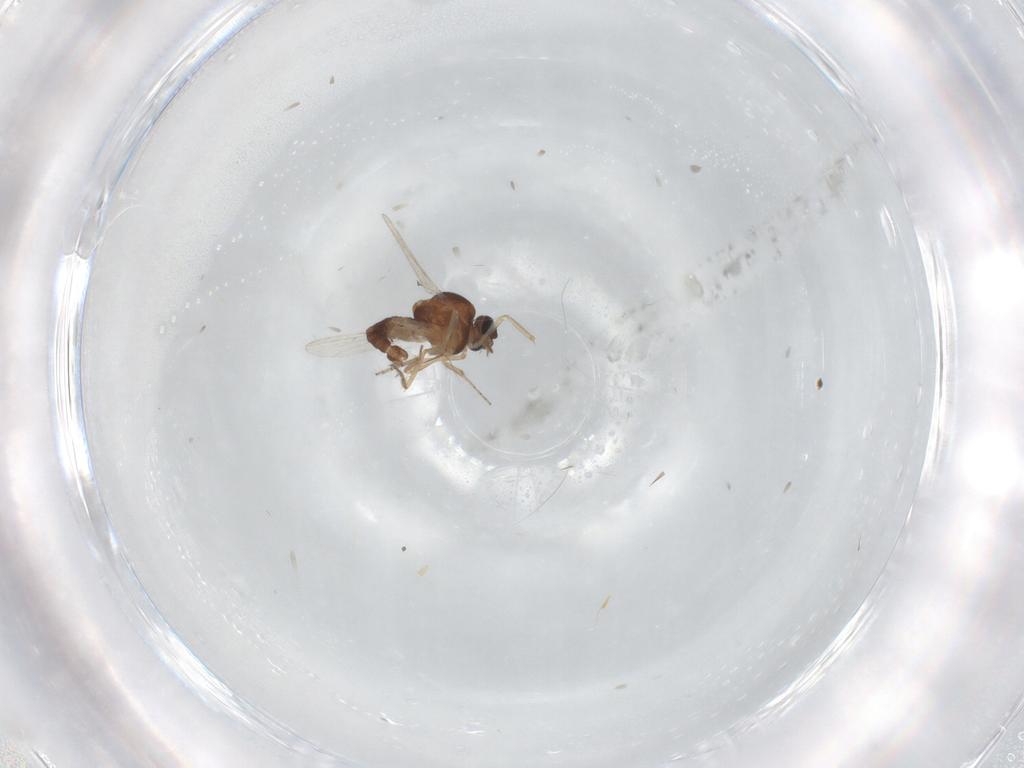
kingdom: Animalia
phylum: Arthropoda
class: Insecta
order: Diptera
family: Ceratopogonidae
